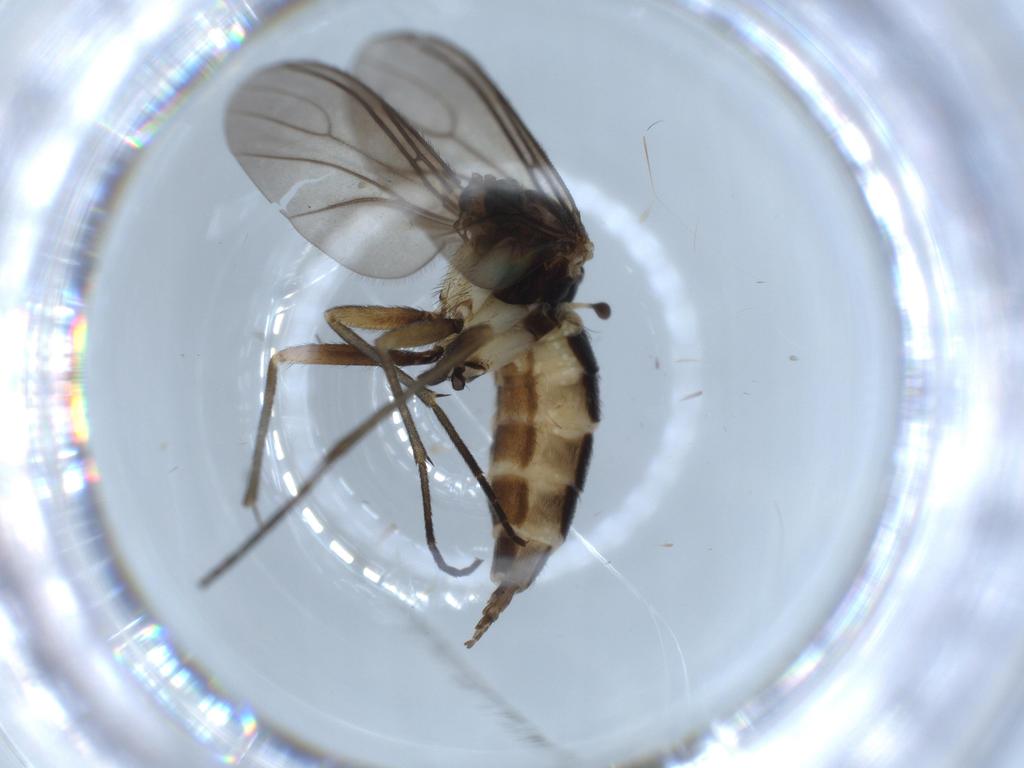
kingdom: Animalia
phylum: Arthropoda
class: Insecta
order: Diptera
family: Sciaridae
